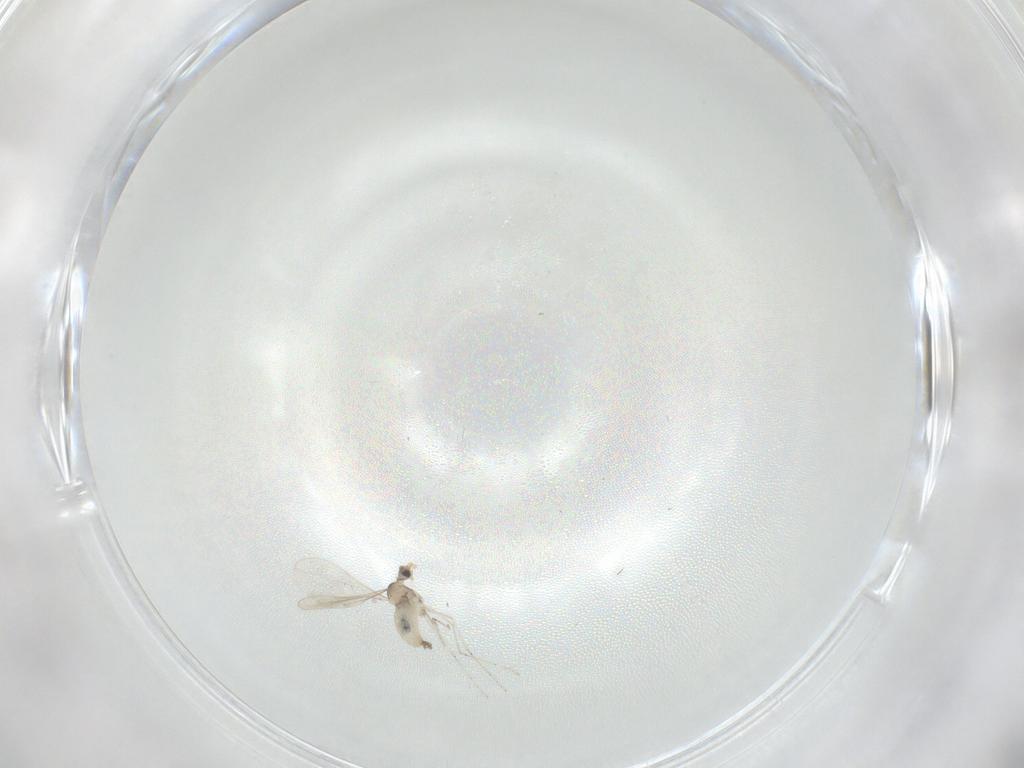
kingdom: Animalia
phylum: Arthropoda
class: Insecta
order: Diptera
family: Cecidomyiidae
